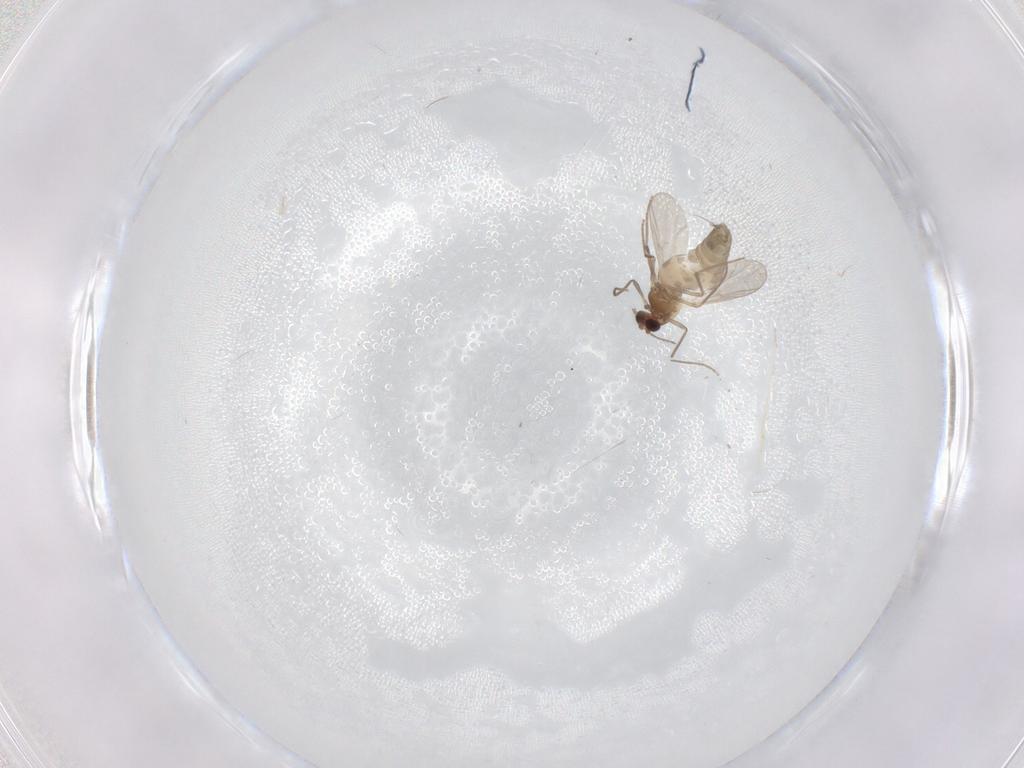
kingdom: Animalia
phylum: Arthropoda
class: Insecta
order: Diptera
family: Chironomidae
